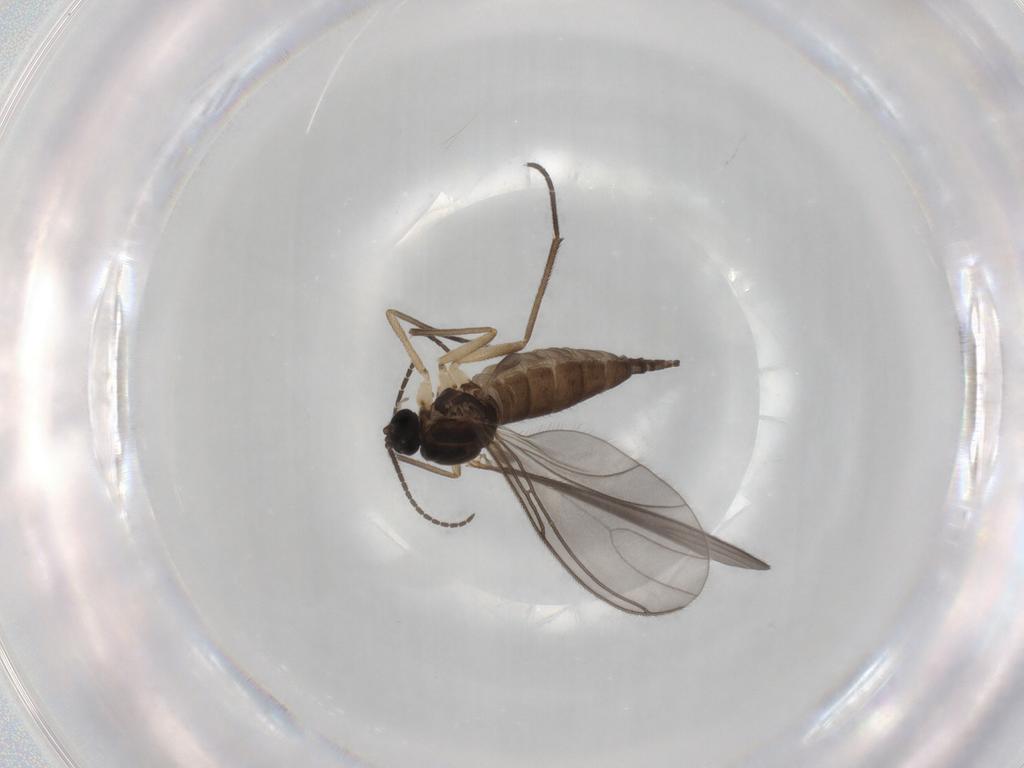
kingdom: Animalia
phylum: Arthropoda
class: Insecta
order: Diptera
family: Sciaridae
